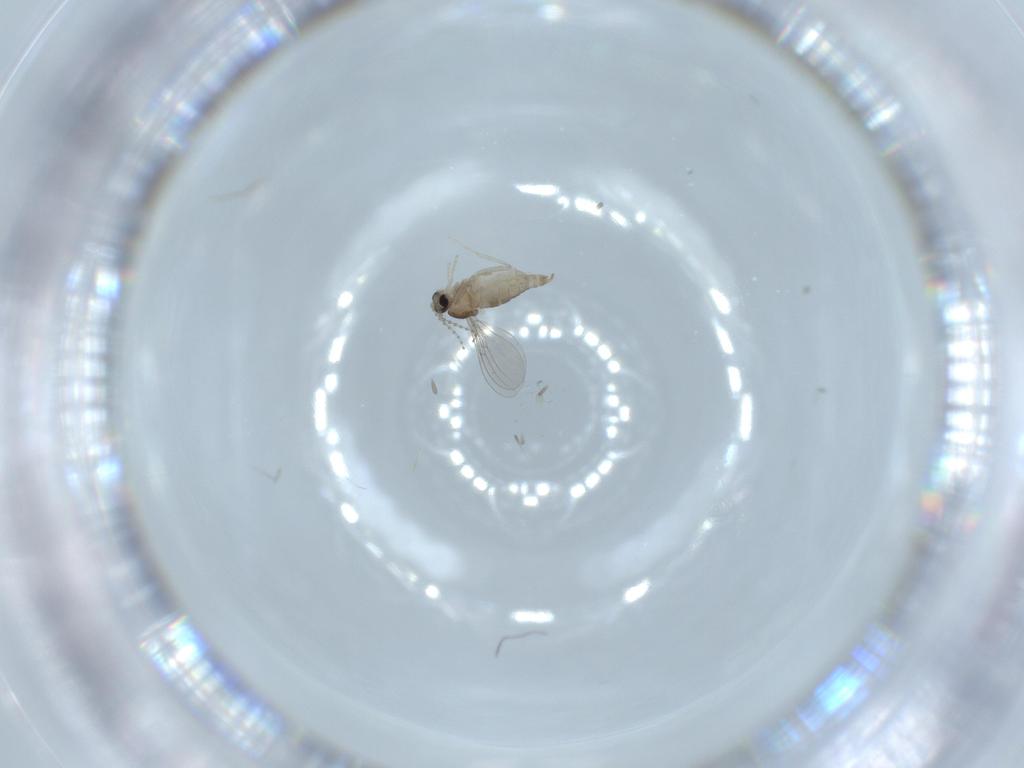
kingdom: Animalia
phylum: Arthropoda
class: Insecta
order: Diptera
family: Cecidomyiidae
